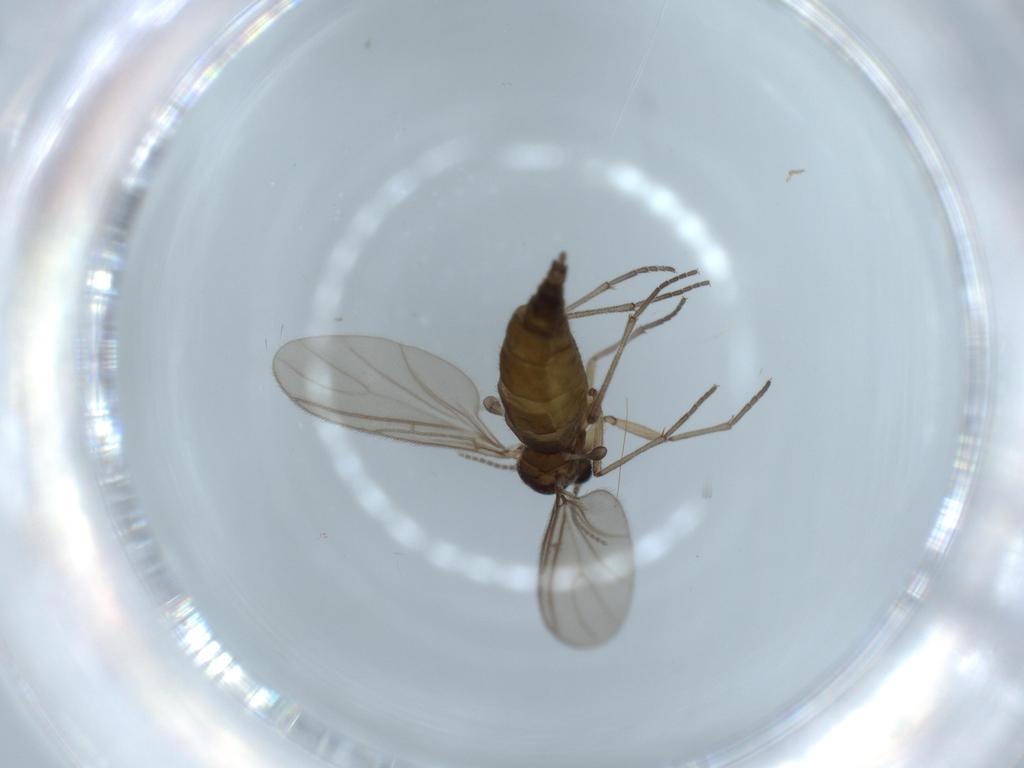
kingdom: Animalia
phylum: Arthropoda
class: Insecta
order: Diptera
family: Sciaridae
